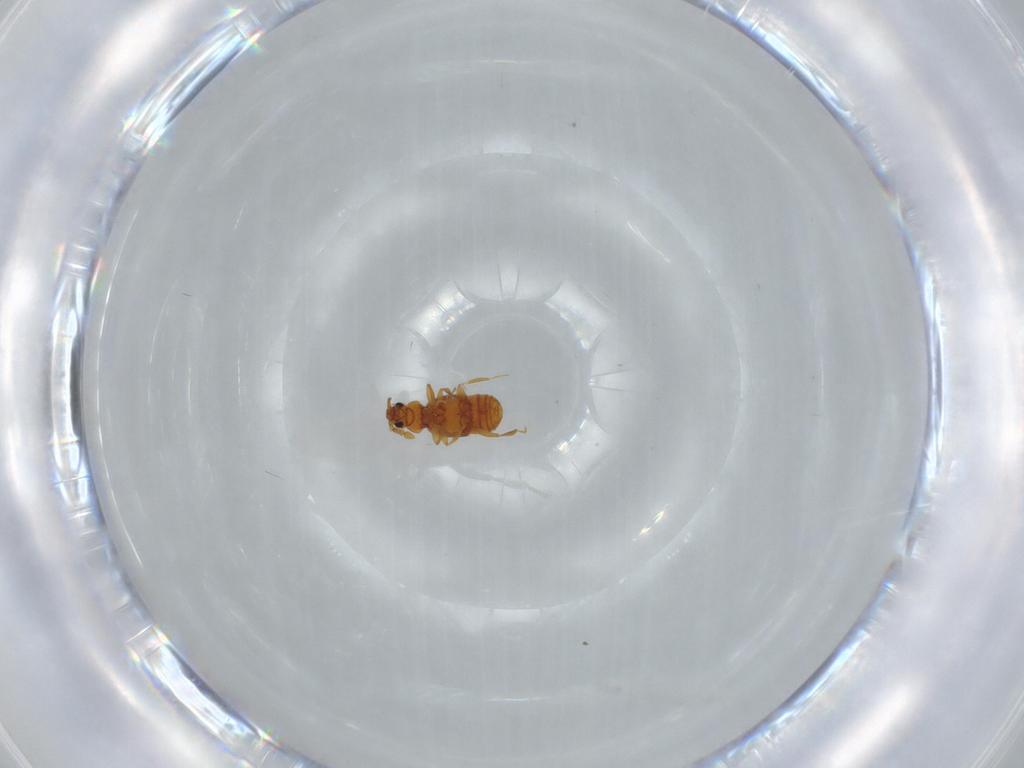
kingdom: Animalia
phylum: Arthropoda
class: Insecta
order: Coleoptera
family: Staphylinidae
